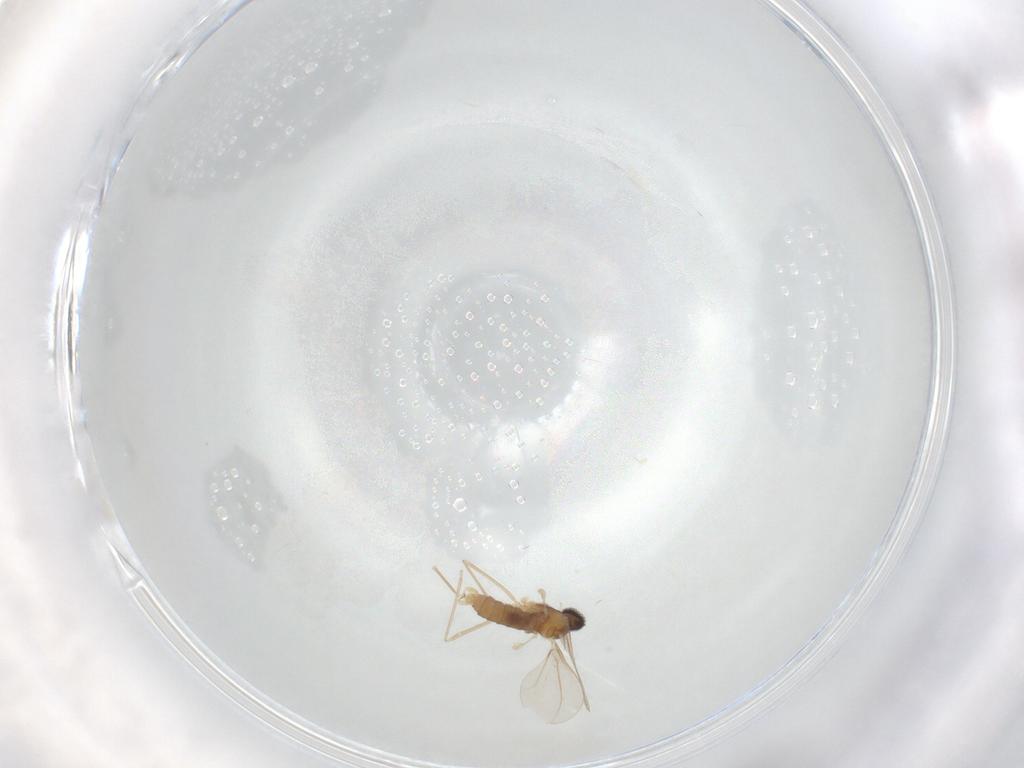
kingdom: Animalia
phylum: Arthropoda
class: Insecta
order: Diptera
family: Cecidomyiidae
